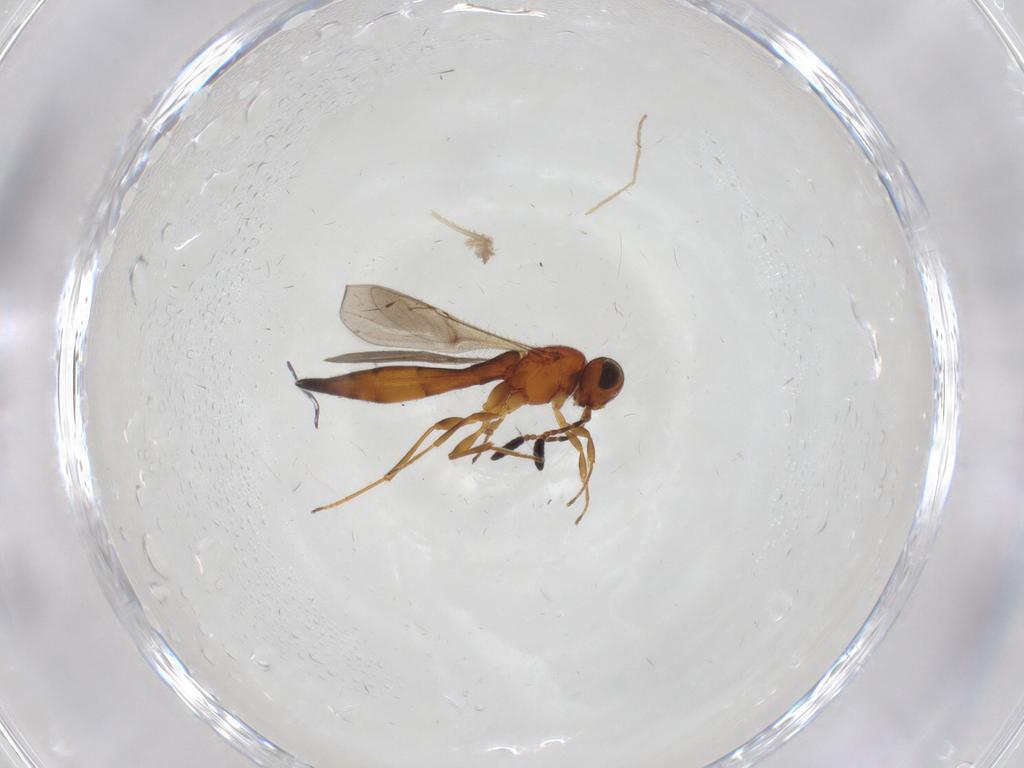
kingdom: Animalia
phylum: Arthropoda
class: Insecta
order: Hymenoptera
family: Scelionidae
